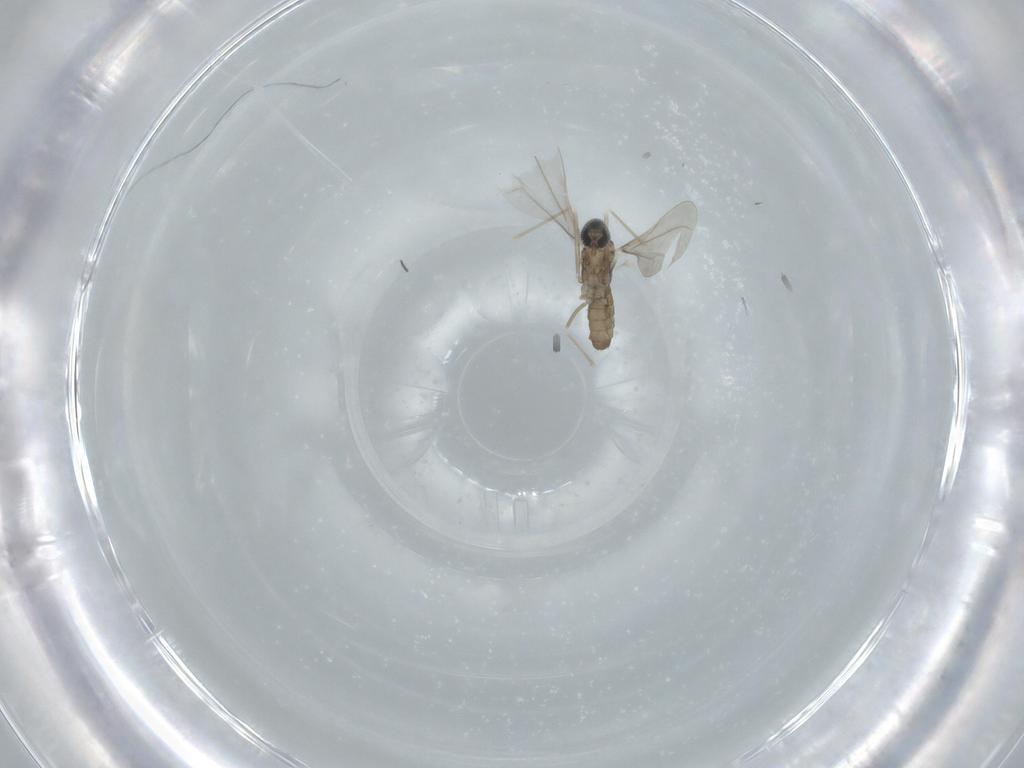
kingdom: Animalia
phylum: Arthropoda
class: Insecta
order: Diptera
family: Cecidomyiidae
